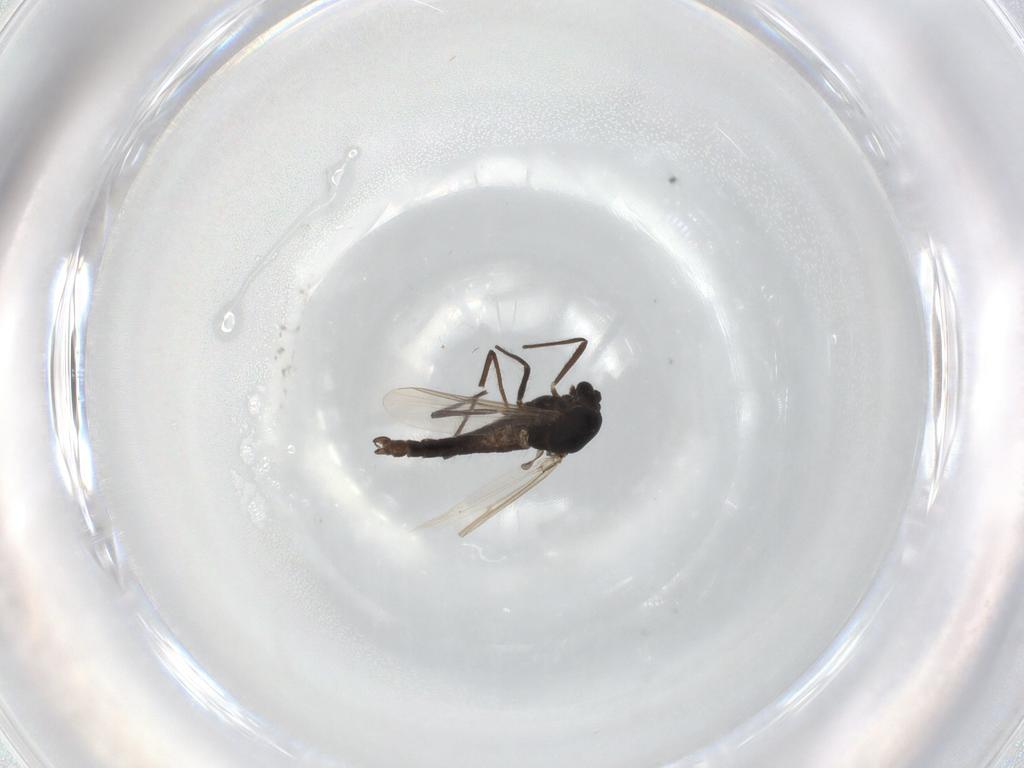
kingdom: Animalia
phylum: Arthropoda
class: Insecta
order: Diptera
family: Chironomidae
